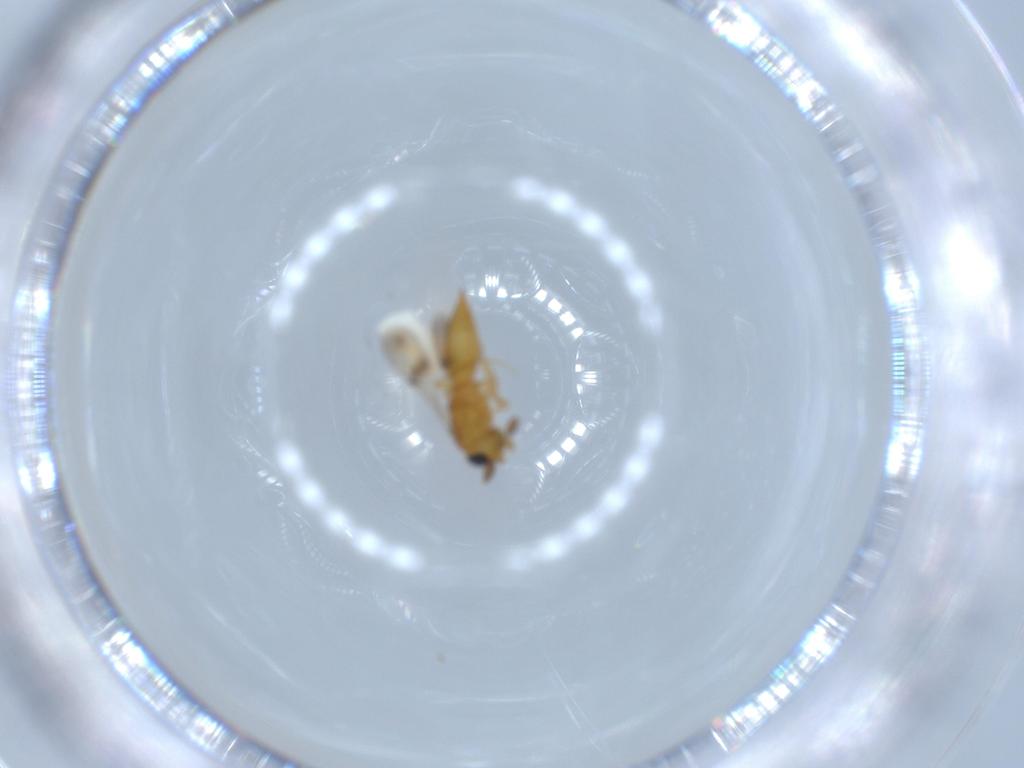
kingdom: Animalia
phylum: Arthropoda
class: Insecta
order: Hymenoptera
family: Scelionidae
